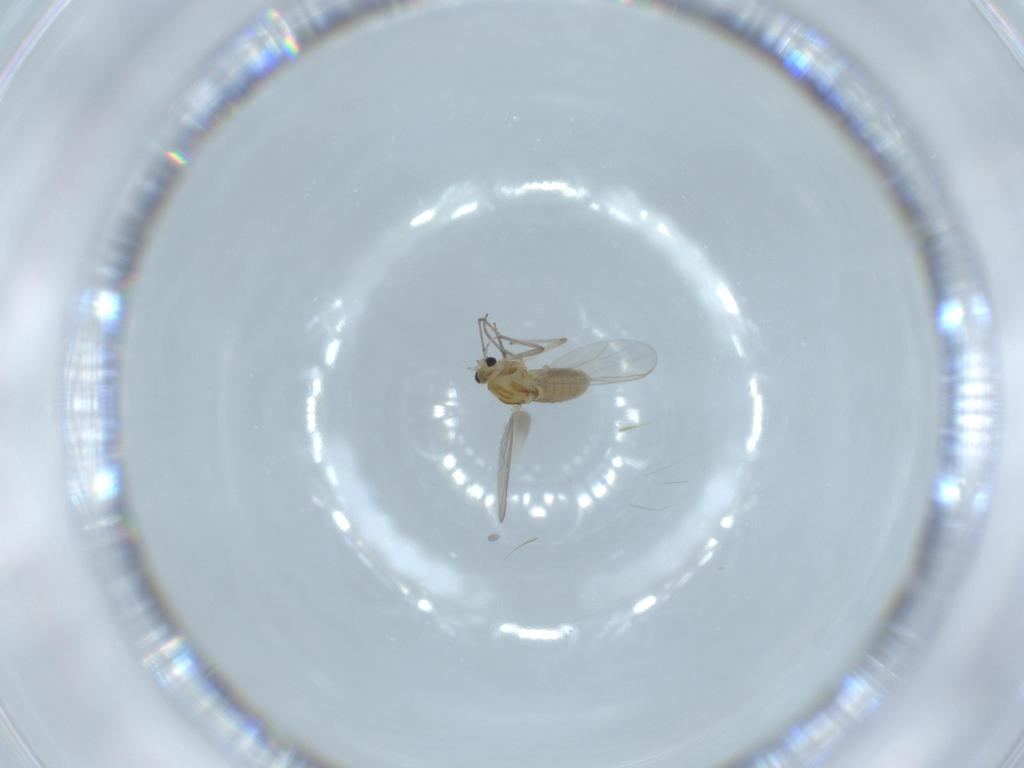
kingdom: Animalia
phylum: Arthropoda
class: Insecta
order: Diptera
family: Chironomidae
